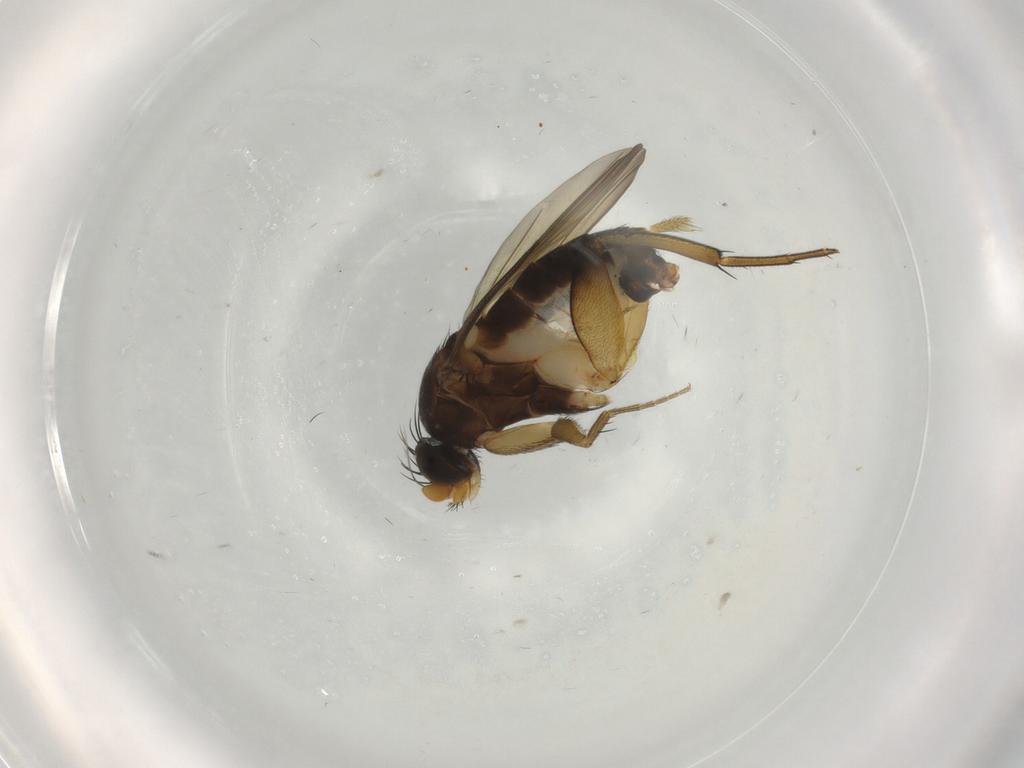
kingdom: Animalia
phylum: Arthropoda
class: Insecta
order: Diptera
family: Phoridae
